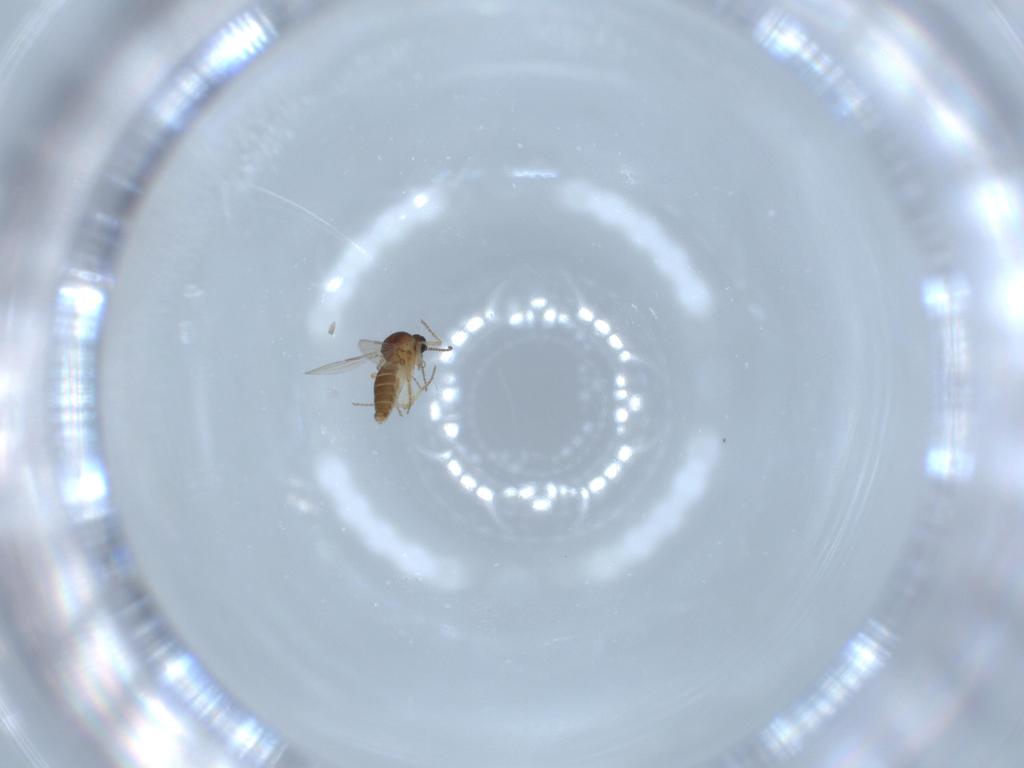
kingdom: Animalia
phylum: Arthropoda
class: Insecta
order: Diptera
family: Ceratopogonidae
